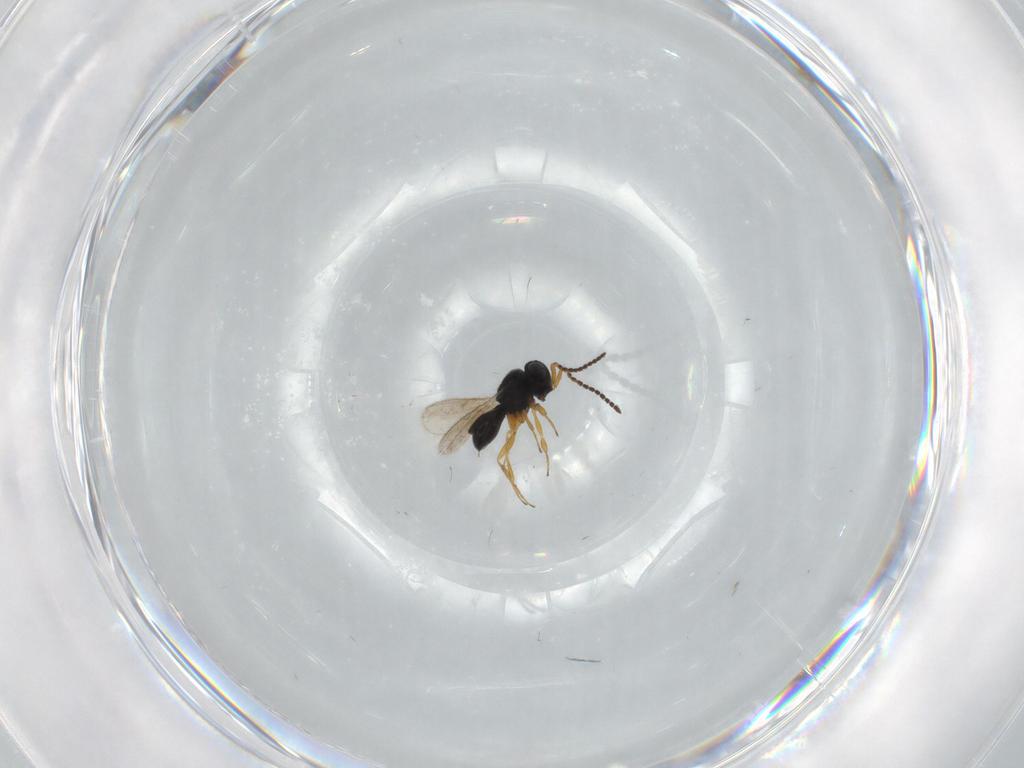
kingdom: Animalia
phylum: Arthropoda
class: Insecta
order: Hymenoptera
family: Scelionidae
